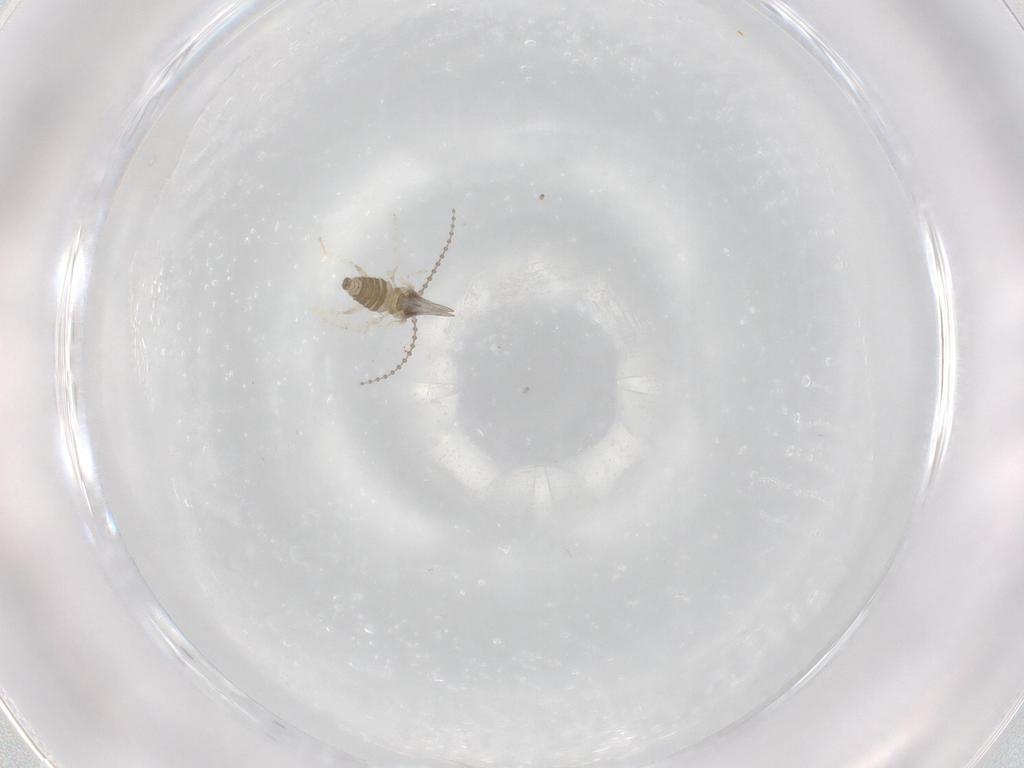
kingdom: Animalia
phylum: Arthropoda
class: Insecta
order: Diptera
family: Cecidomyiidae
